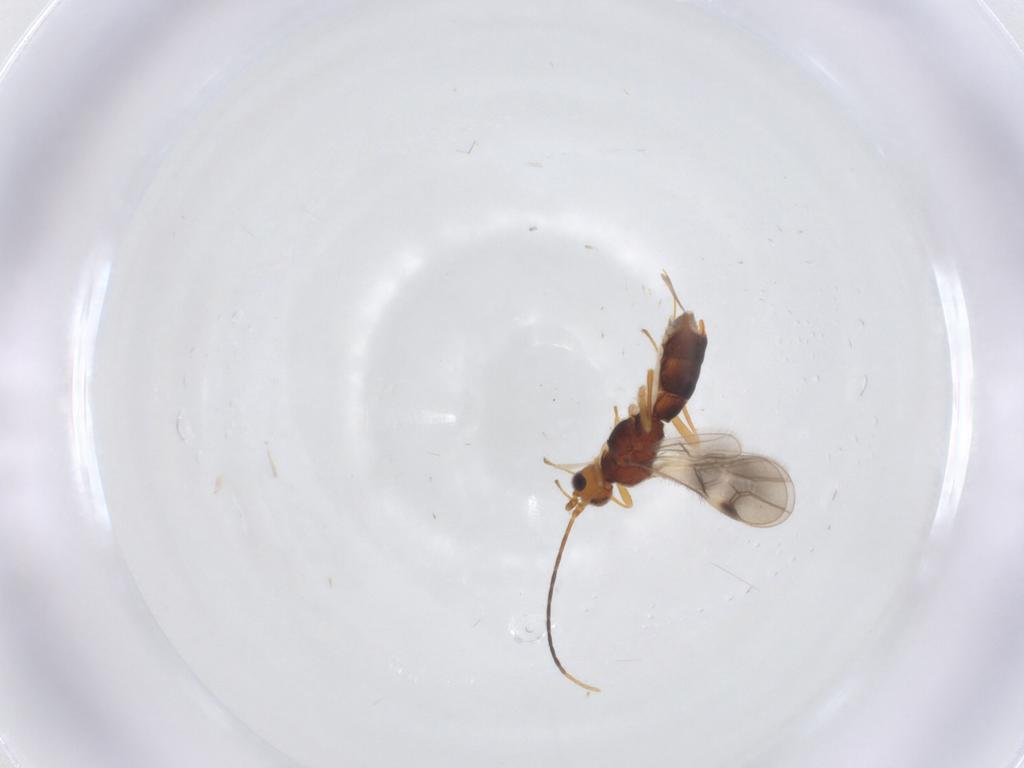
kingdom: Animalia
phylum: Arthropoda
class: Insecta
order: Hymenoptera
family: Braconidae
